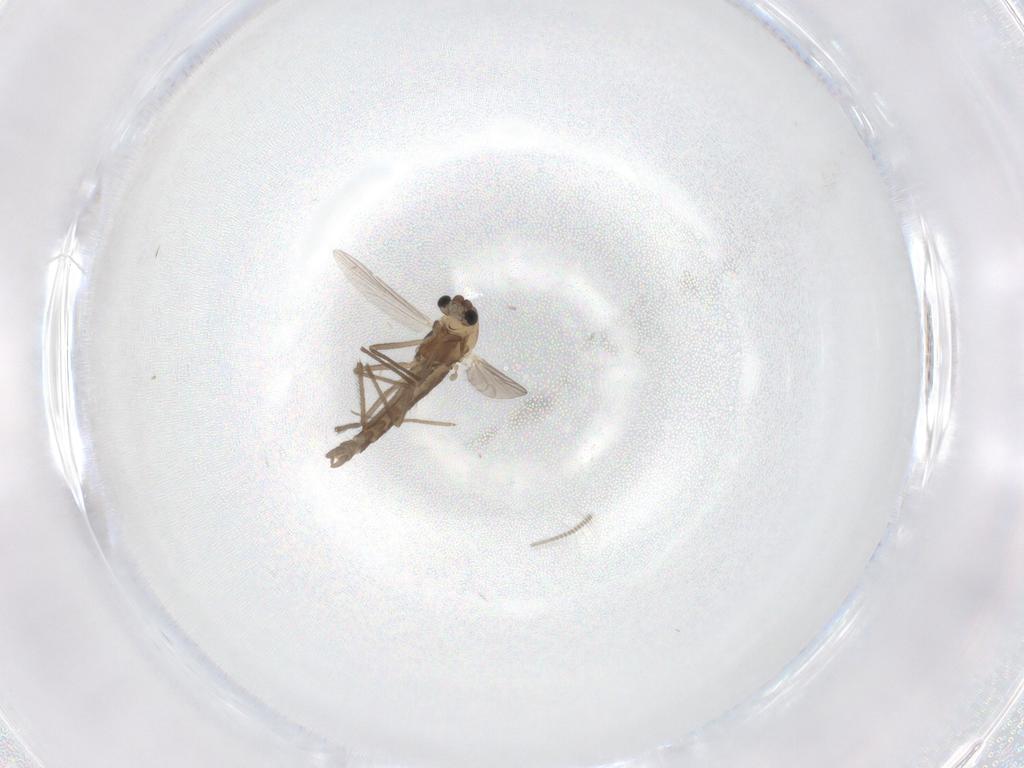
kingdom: Animalia
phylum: Arthropoda
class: Insecta
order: Diptera
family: Chironomidae
